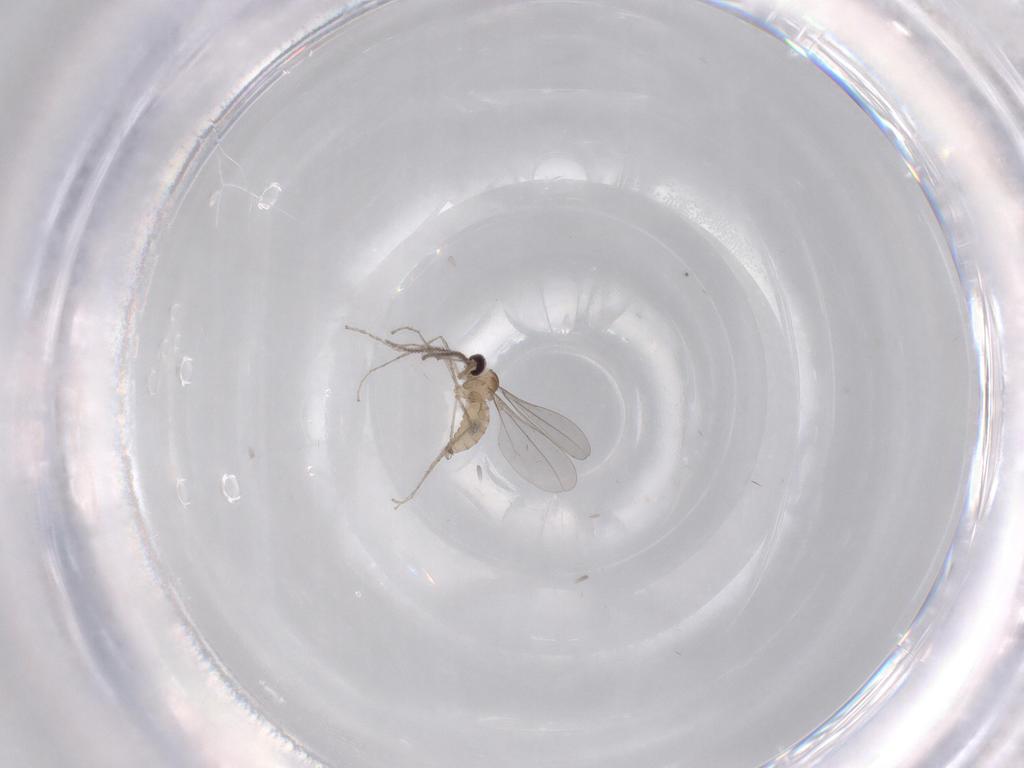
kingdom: Animalia
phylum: Arthropoda
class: Insecta
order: Diptera
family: Cecidomyiidae
